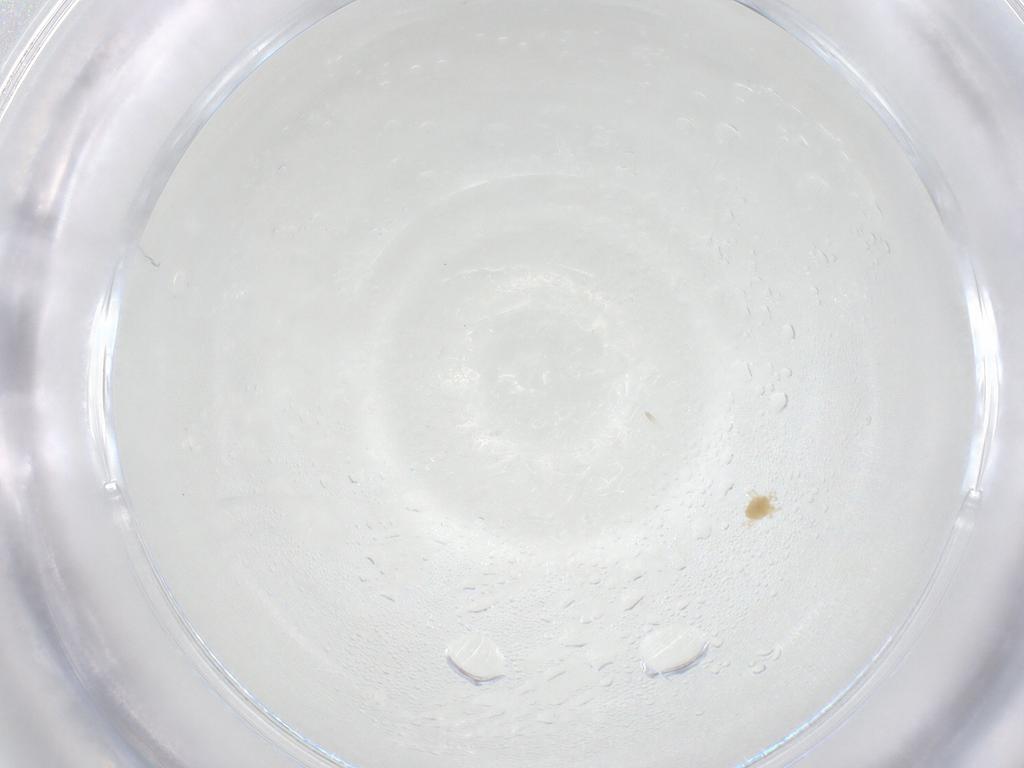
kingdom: Animalia
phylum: Arthropoda
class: Arachnida
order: Trombidiformes
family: Tetranychidae
